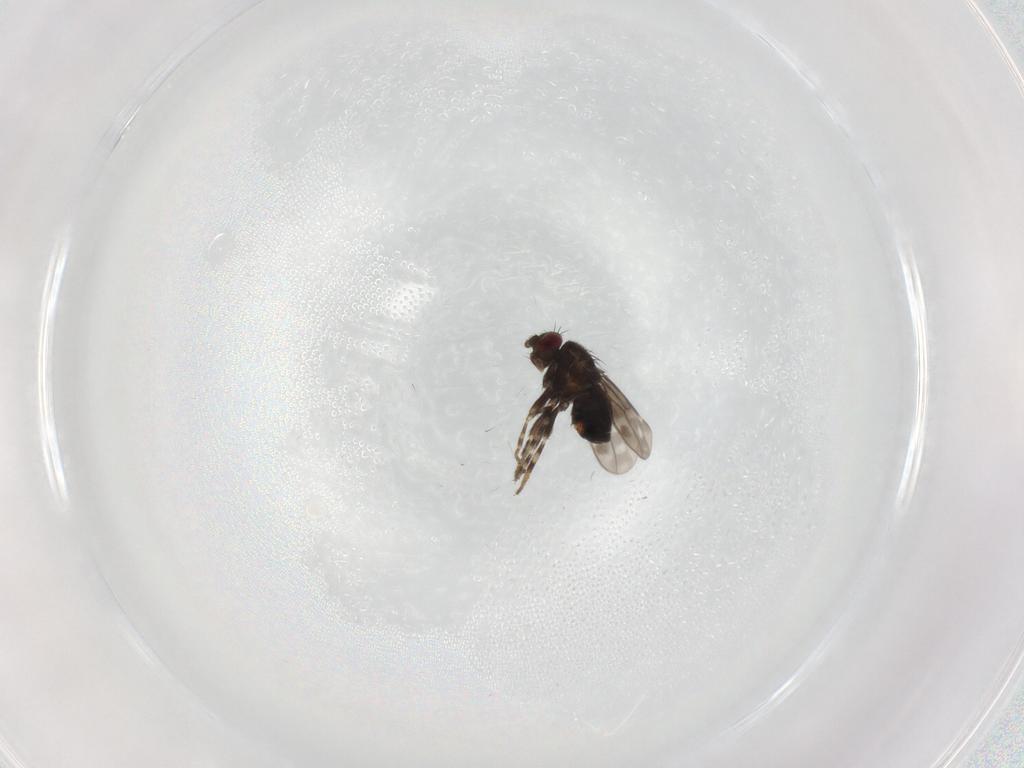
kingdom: Animalia
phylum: Arthropoda
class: Insecta
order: Diptera
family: Sphaeroceridae
